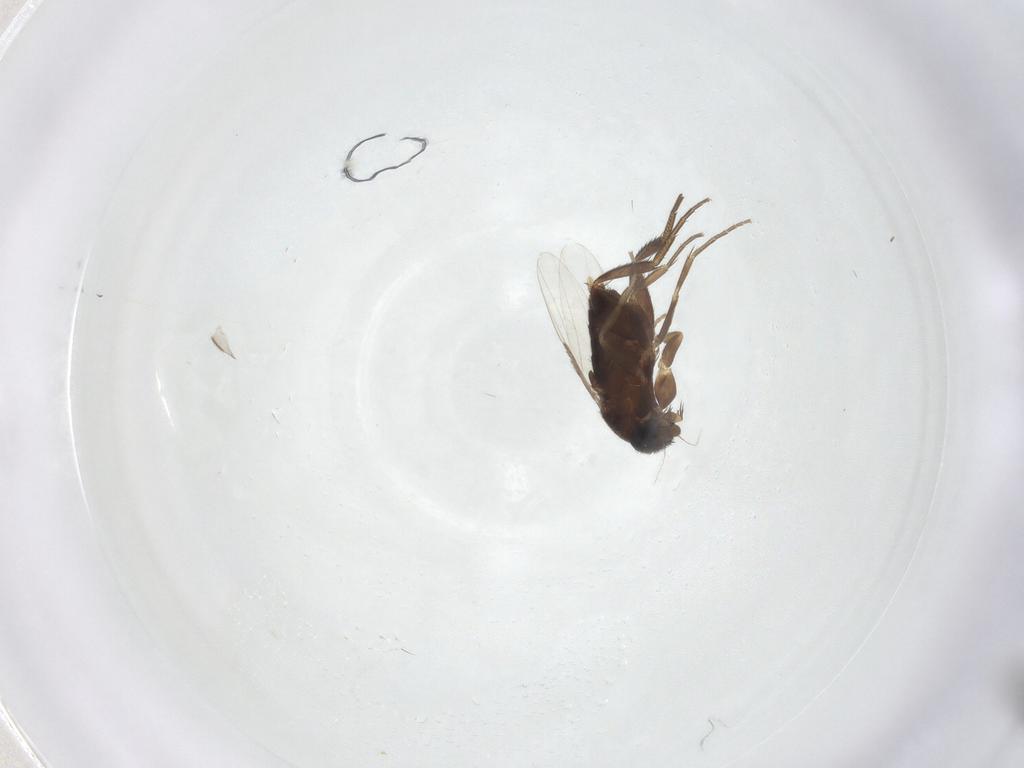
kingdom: Animalia
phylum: Arthropoda
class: Insecta
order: Diptera
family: Phoridae
